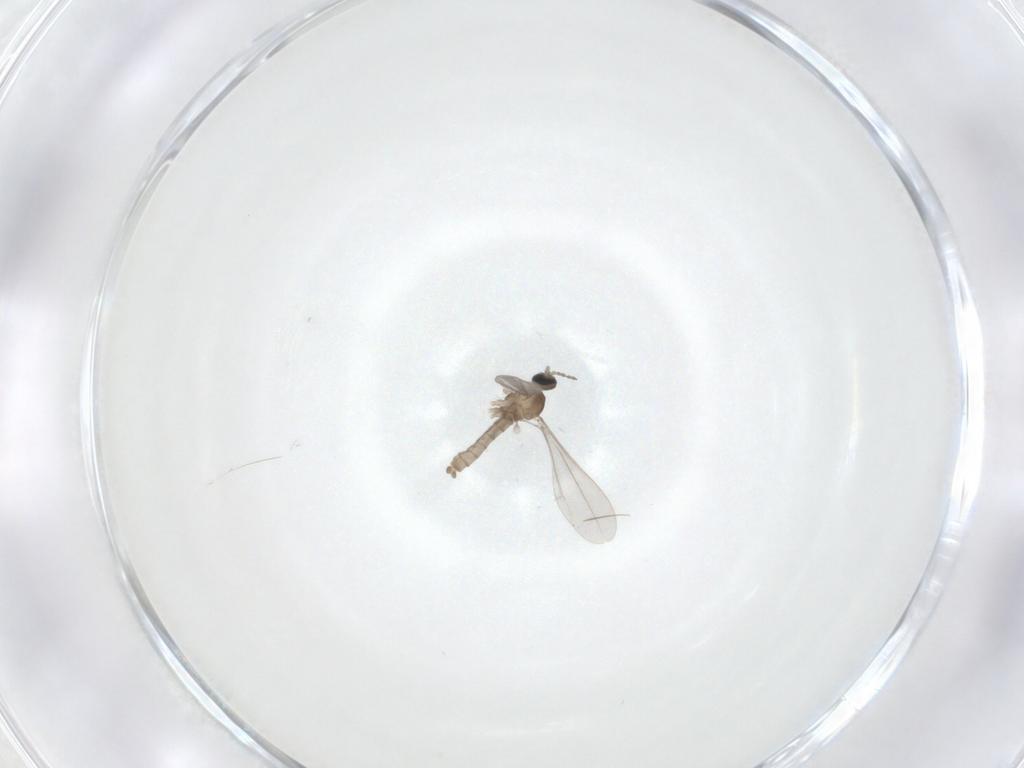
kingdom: Animalia
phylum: Arthropoda
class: Insecta
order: Diptera
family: Cecidomyiidae
